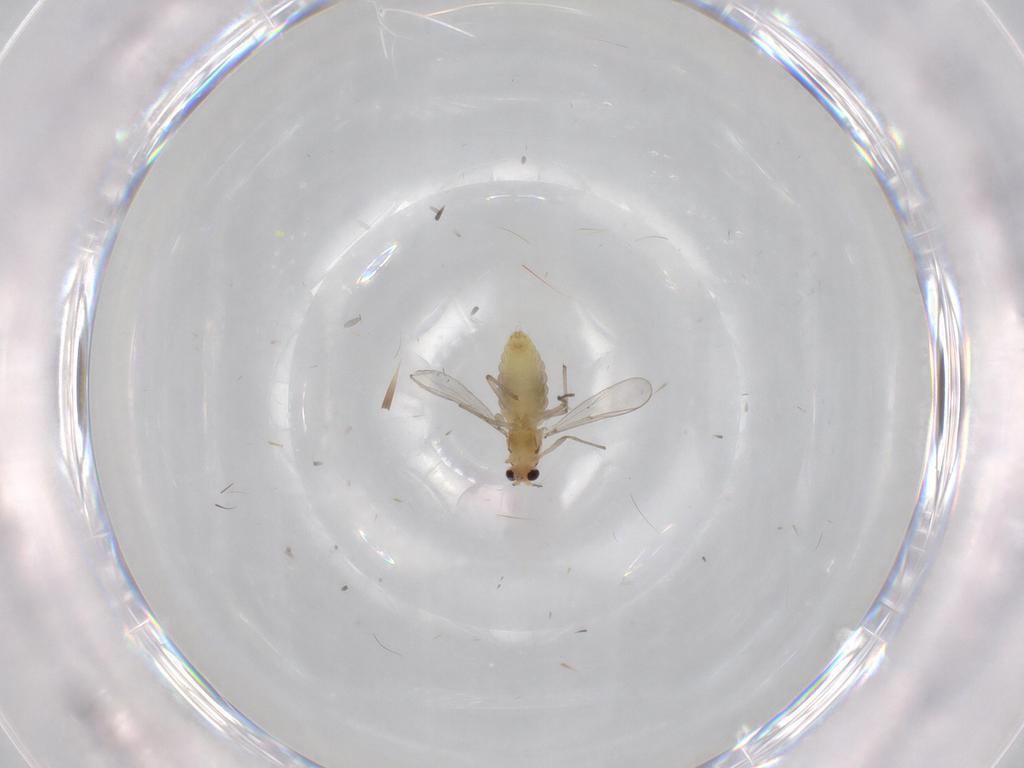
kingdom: Animalia
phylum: Arthropoda
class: Insecta
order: Diptera
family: Chironomidae
